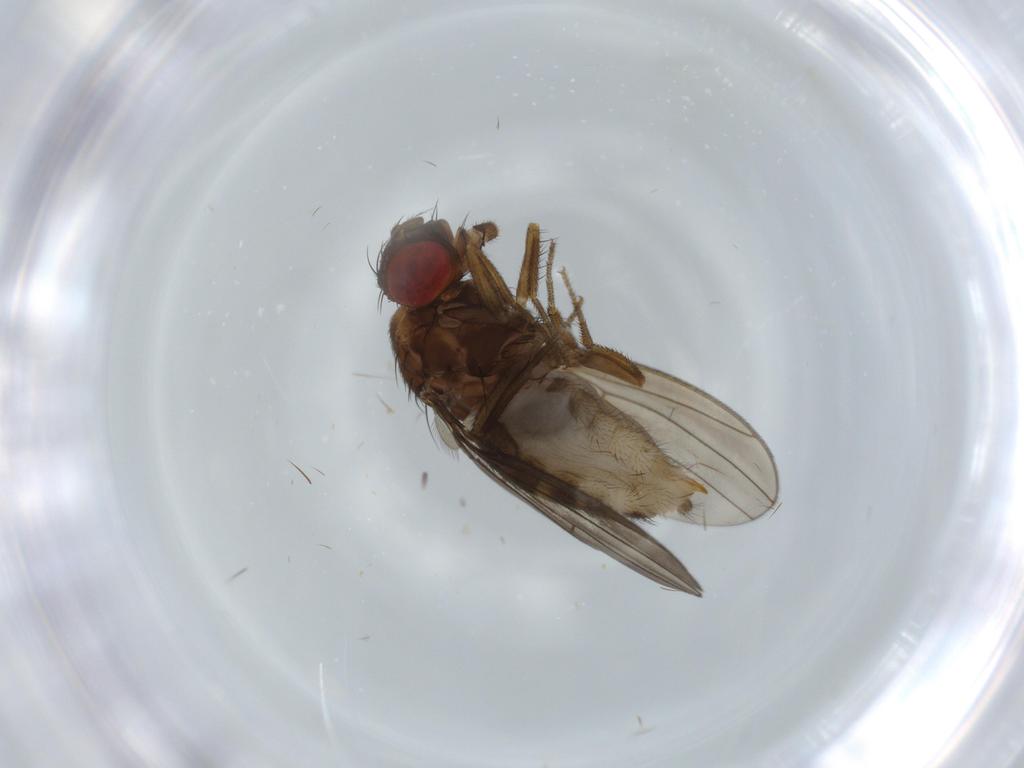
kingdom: Animalia
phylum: Arthropoda
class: Insecta
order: Diptera
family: Drosophilidae
